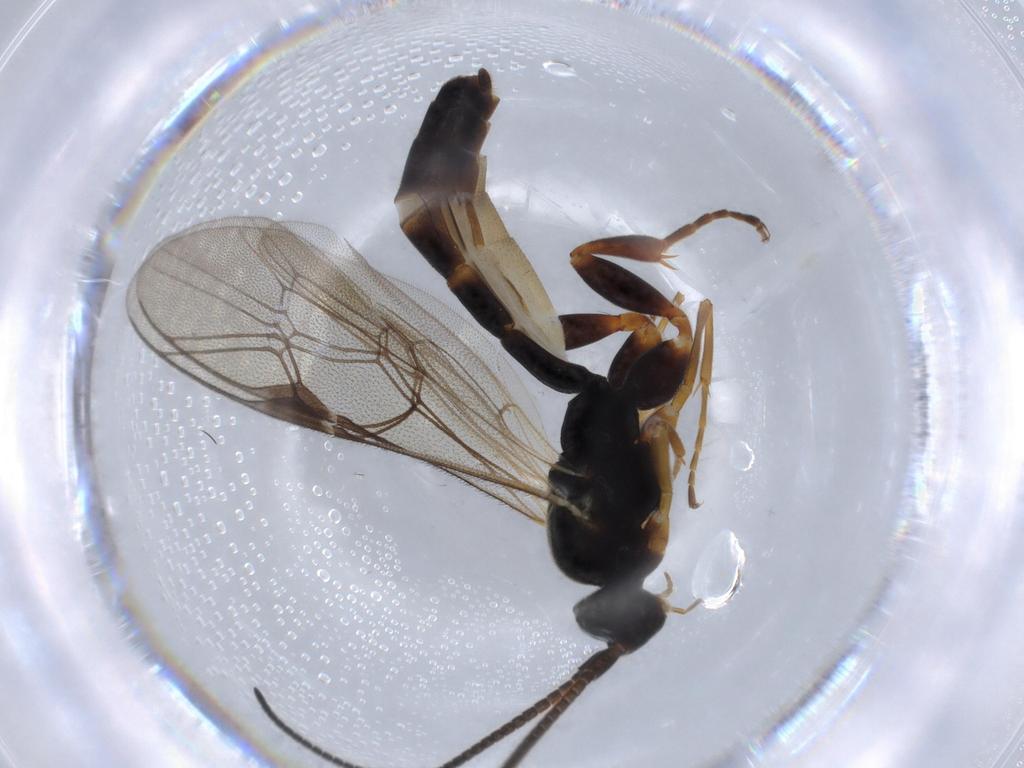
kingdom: Animalia
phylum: Arthropoda
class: Insecta
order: Hymenoptera
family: Ichneumonidae
